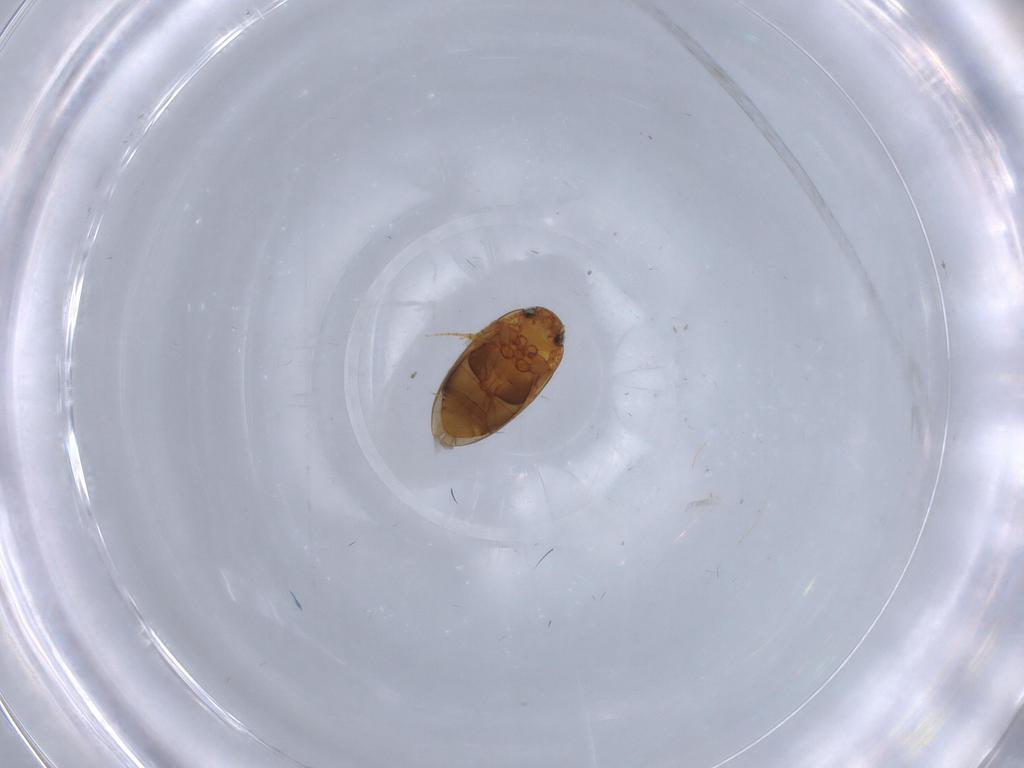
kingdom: Animalia
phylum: Arthropoda
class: Insecta
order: Coleoptera
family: Noteridae
